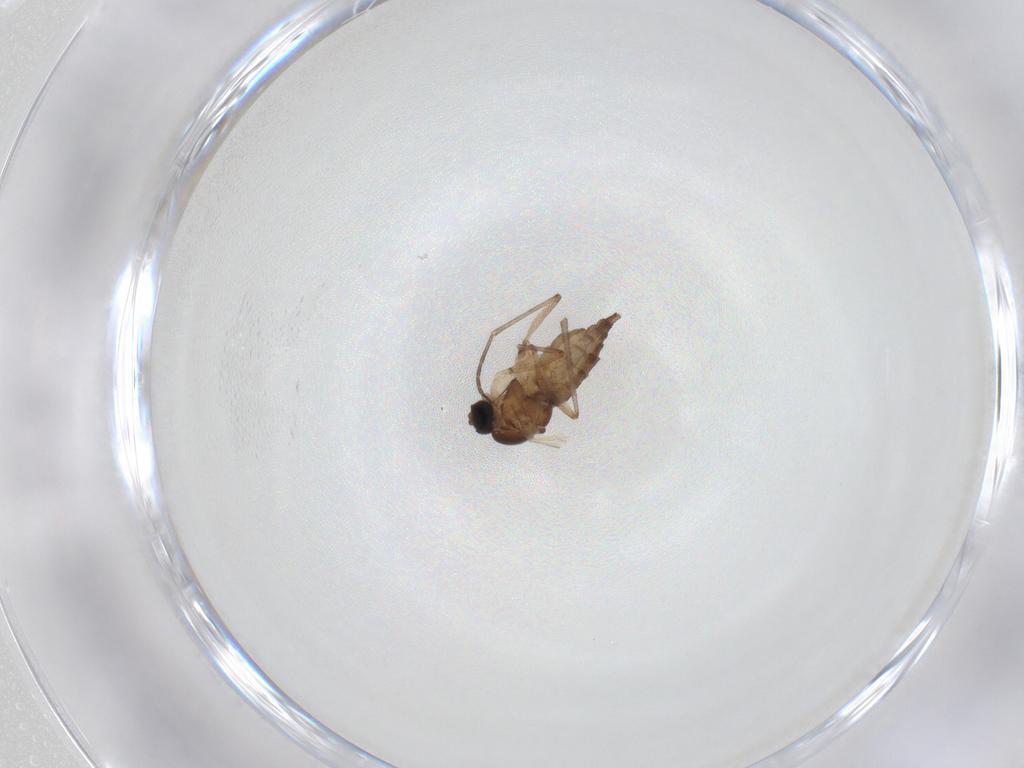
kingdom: Animalia
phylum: Arthropoda
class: Insecta
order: Diptera
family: Sciaridae
